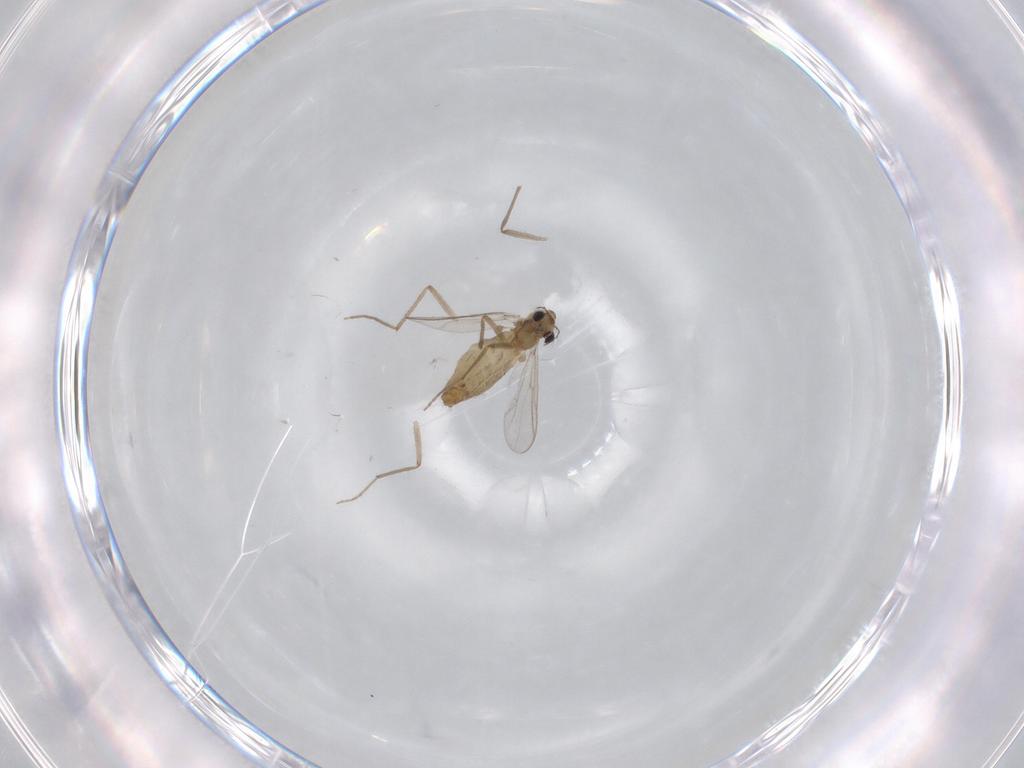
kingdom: Animalia
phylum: Arthropoda
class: Insecta
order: Diptera
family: Chironomidae
